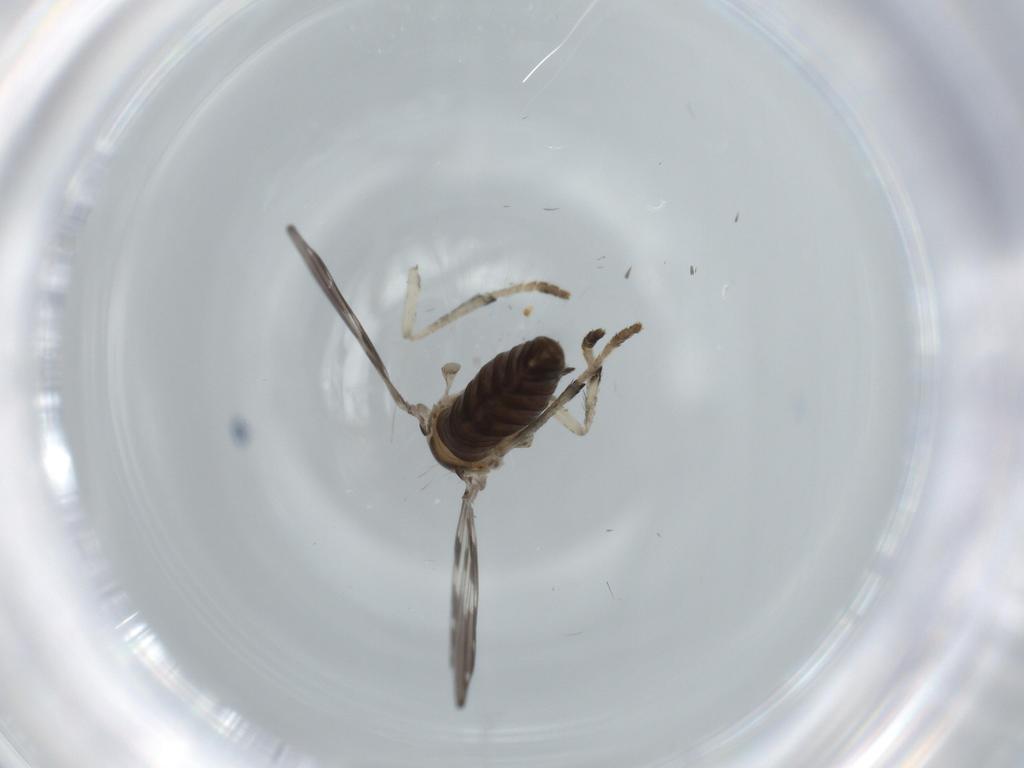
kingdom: Animalia
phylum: Arthropoda
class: Insecta
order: Diptera
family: Psychodidae
